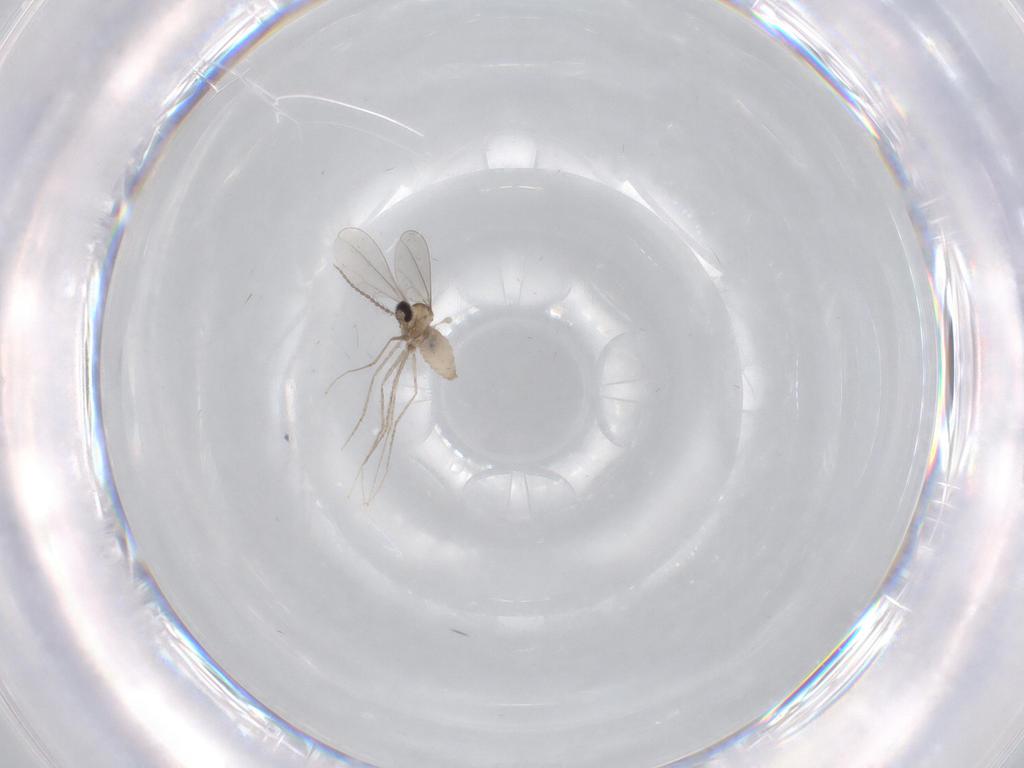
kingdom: Animalia
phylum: Arthropoda
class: Insecta
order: Diptera
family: Cecidomyiidae
